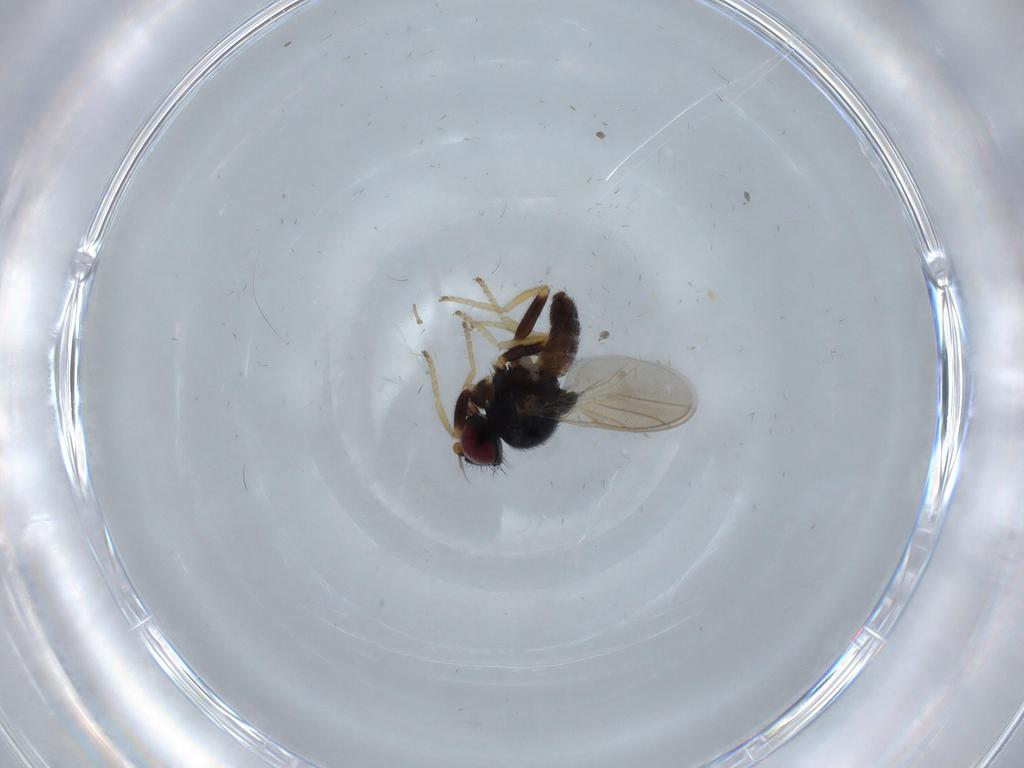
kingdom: Animalia
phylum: Arthropoda
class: Insecta
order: Diptera
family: Chloropidae
